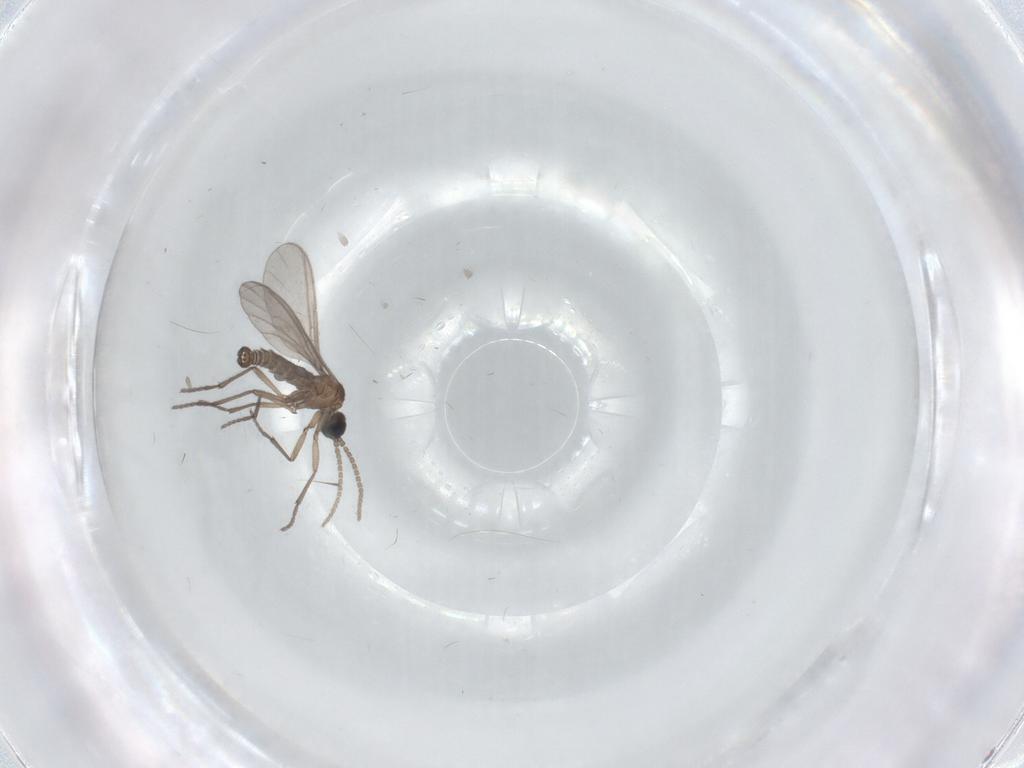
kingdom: Animalia
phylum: Arthropoda
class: Insecta
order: Diptera
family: Sciaridae
